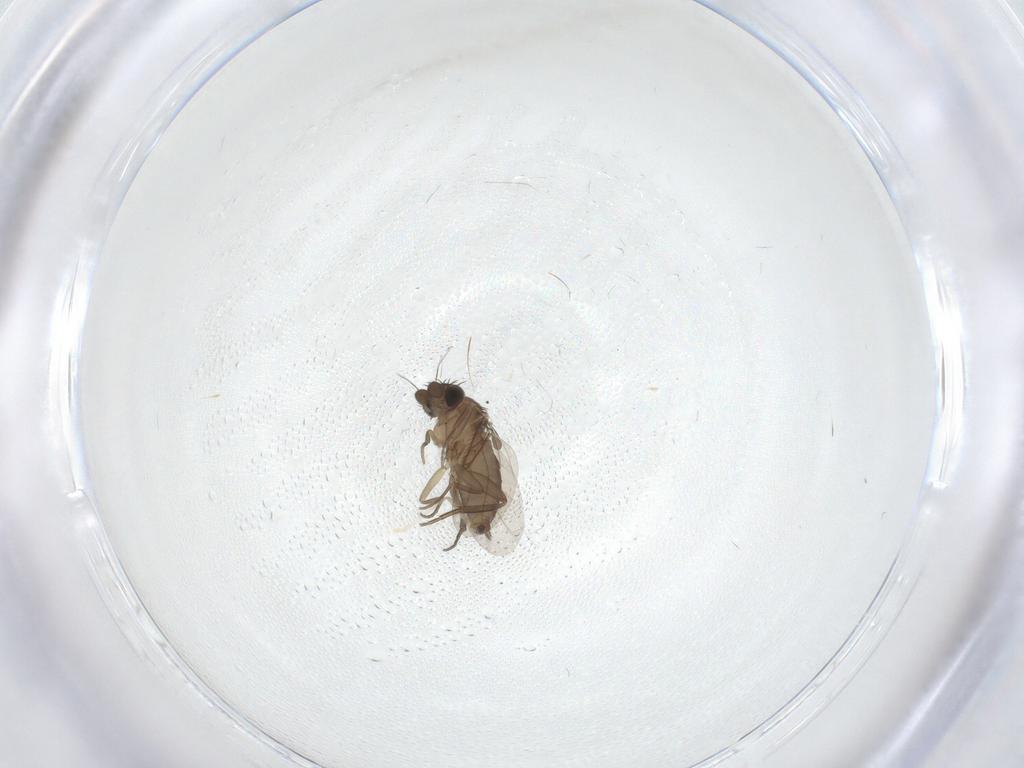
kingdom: Animalia
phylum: Arthropoda
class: Insecta
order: Diptera
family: Phoridae
